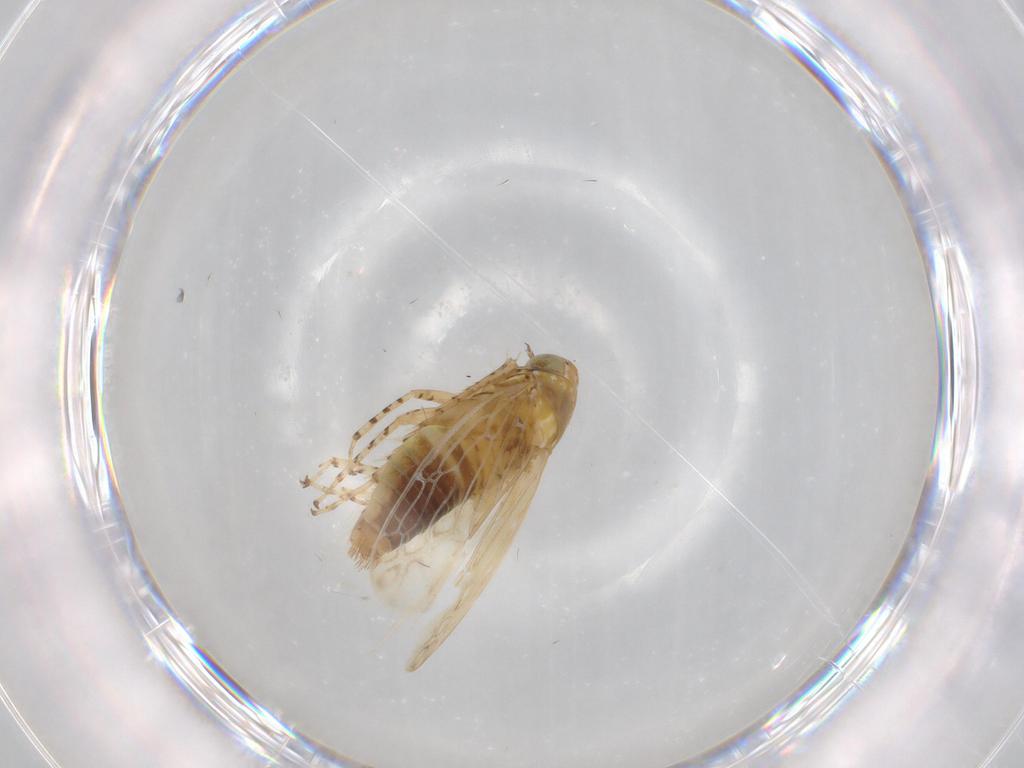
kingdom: Animalia
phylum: Arthropoda
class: Insecta
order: Hemiptera
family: Cicadellidae
